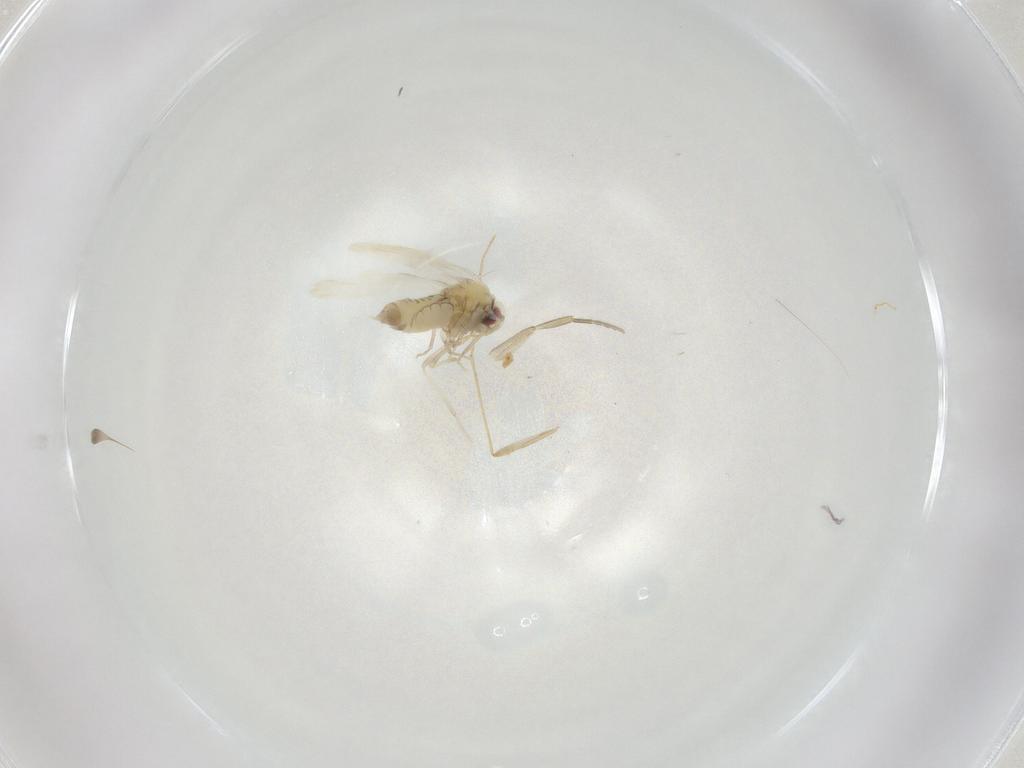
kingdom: Animalia
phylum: Arthropoda
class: Insecta
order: Hemiptera
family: Aleyrodidae
